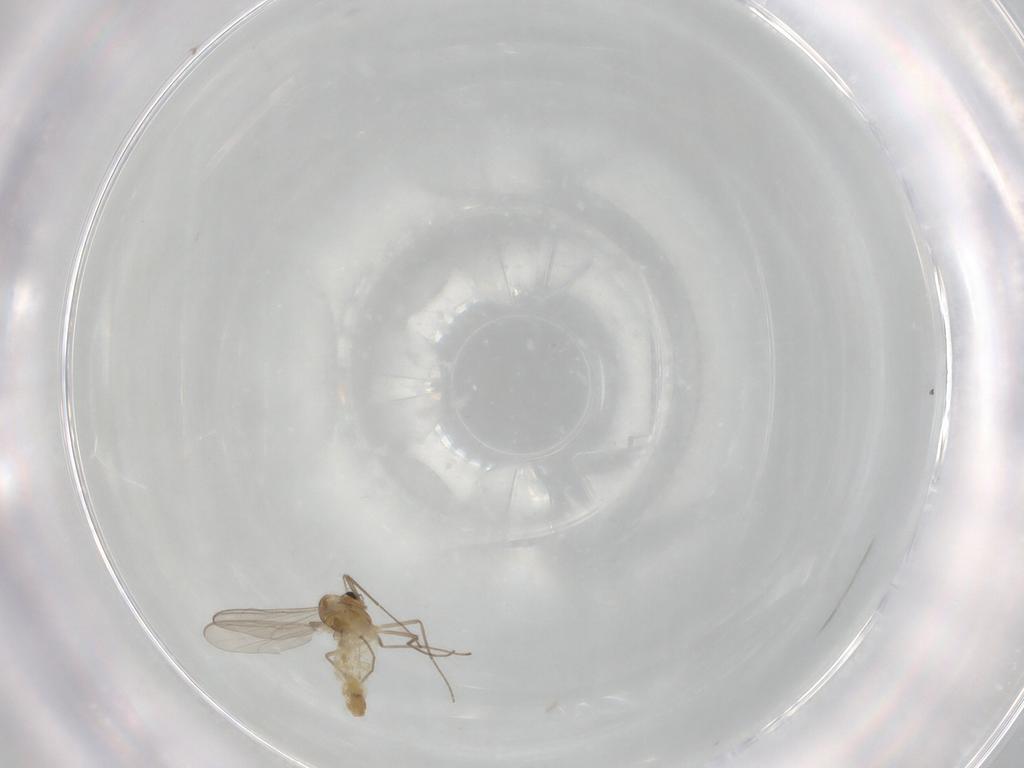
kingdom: Animalia
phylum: Arthropoda
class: Insecta
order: Diptera
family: Chironomidae
